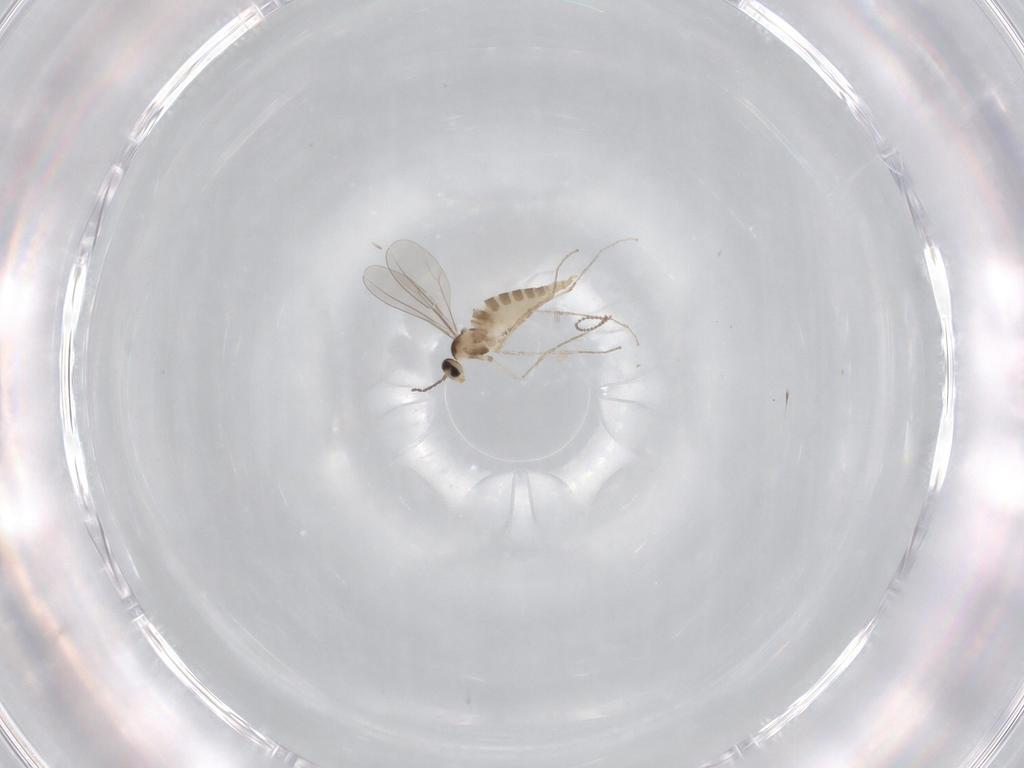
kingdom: Animalia
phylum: Arthropoda
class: Insecta
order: Diptera
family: Cecidomyiidae
